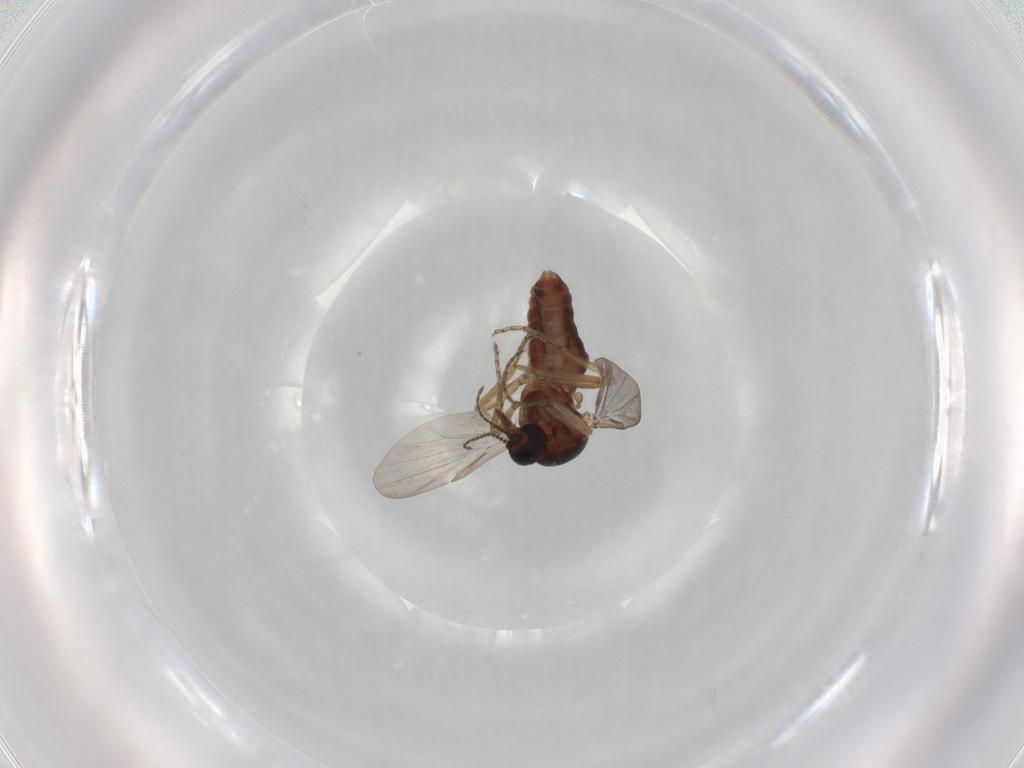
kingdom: Animalia
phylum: Arthropoda
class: Insecta
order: Diptera
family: Ceratopogonidae
